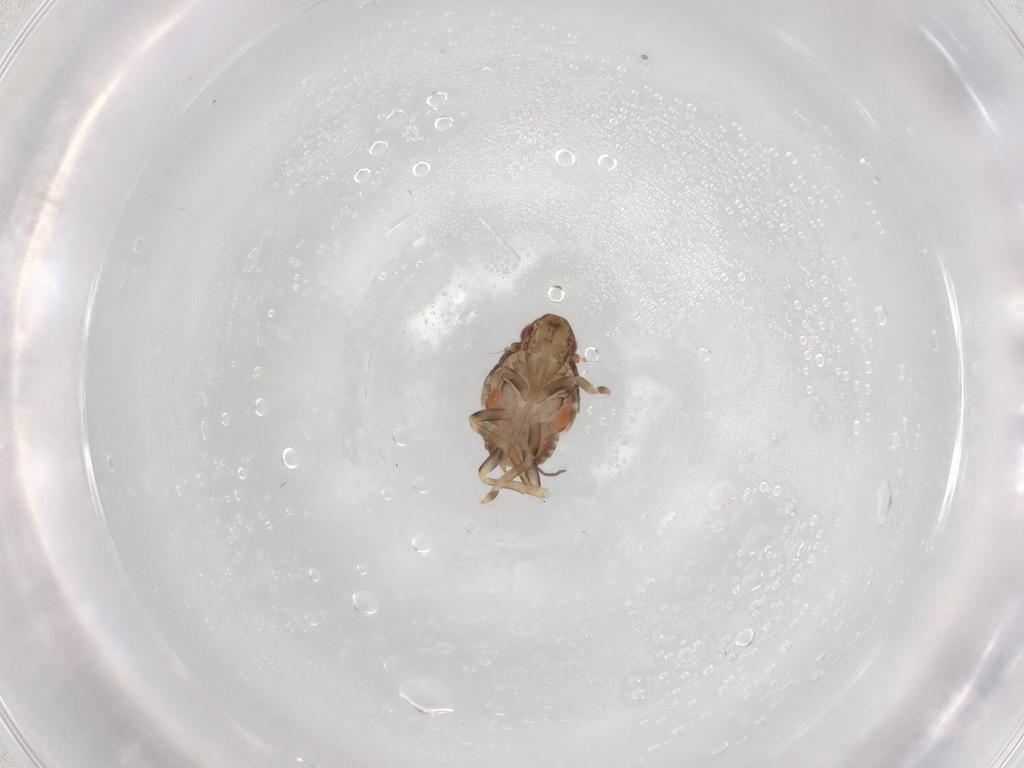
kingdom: Animalia
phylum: Arthropoda
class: Insecta
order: Hemiptera
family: Flatidae
